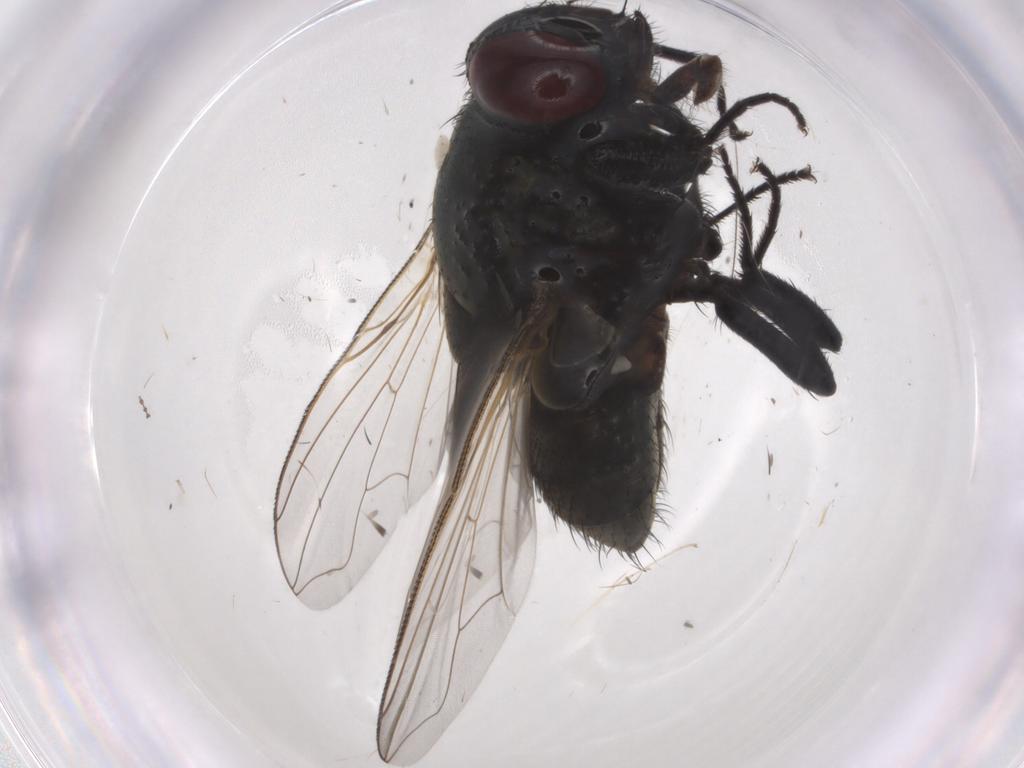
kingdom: Animalia
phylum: Arthropoda
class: Insecta
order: Diptera
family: Muscidae
